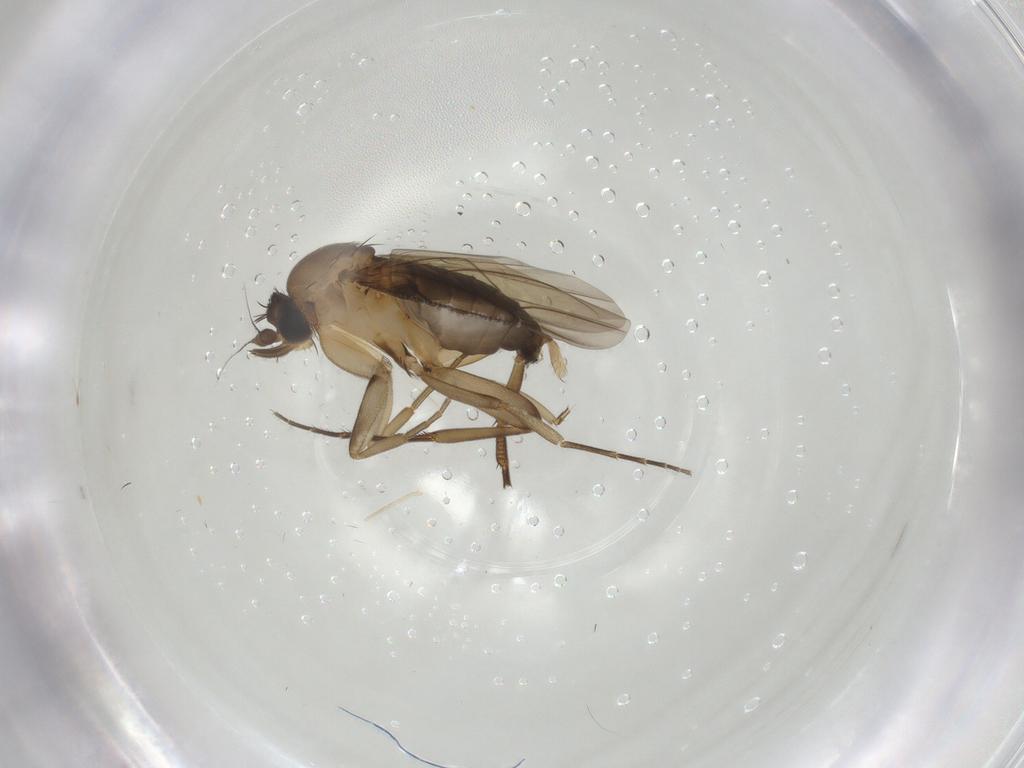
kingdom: Animalia
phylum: Arthropoda
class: Insecta
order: Diptera
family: Phoridae
